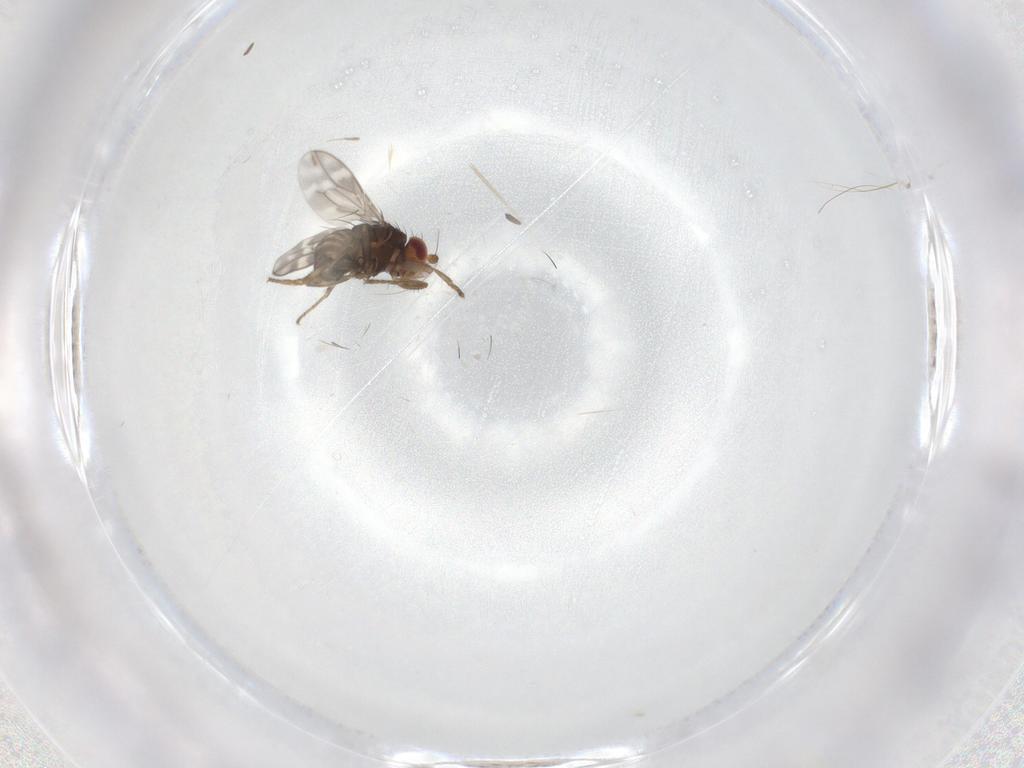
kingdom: Animalia
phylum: Arthropoda
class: Insecta
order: Diptera
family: Sphaeroceridae
